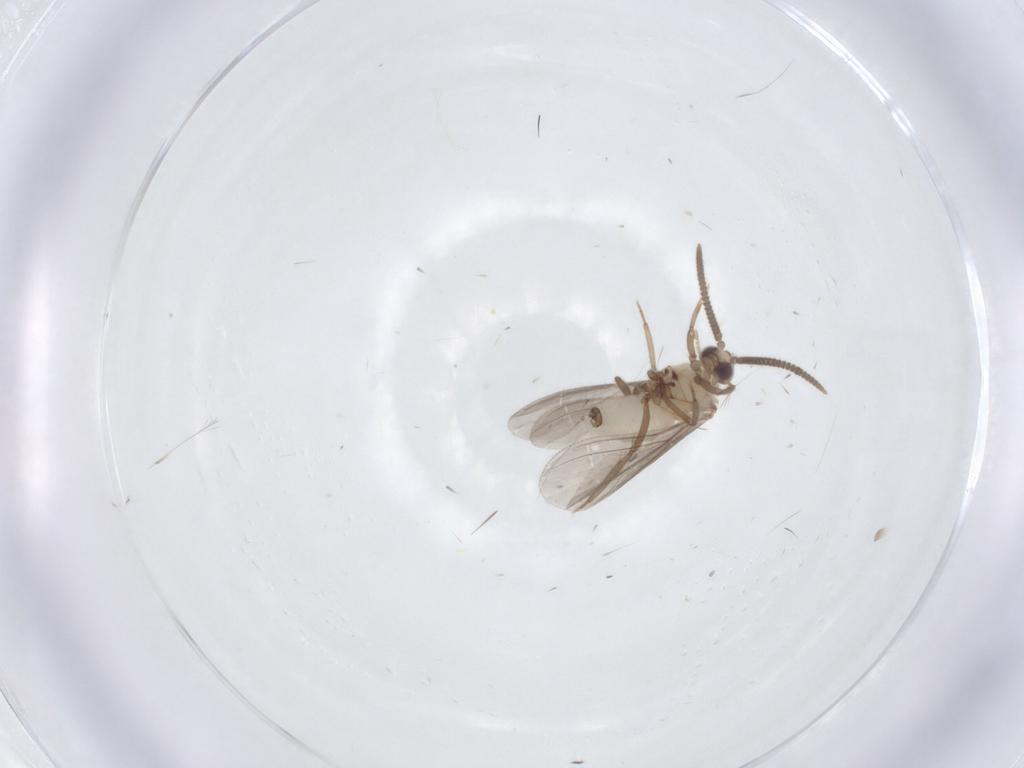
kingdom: Animalia
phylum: Arthropoda
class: Insecta
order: Neuroptera
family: Coniopterygidae
